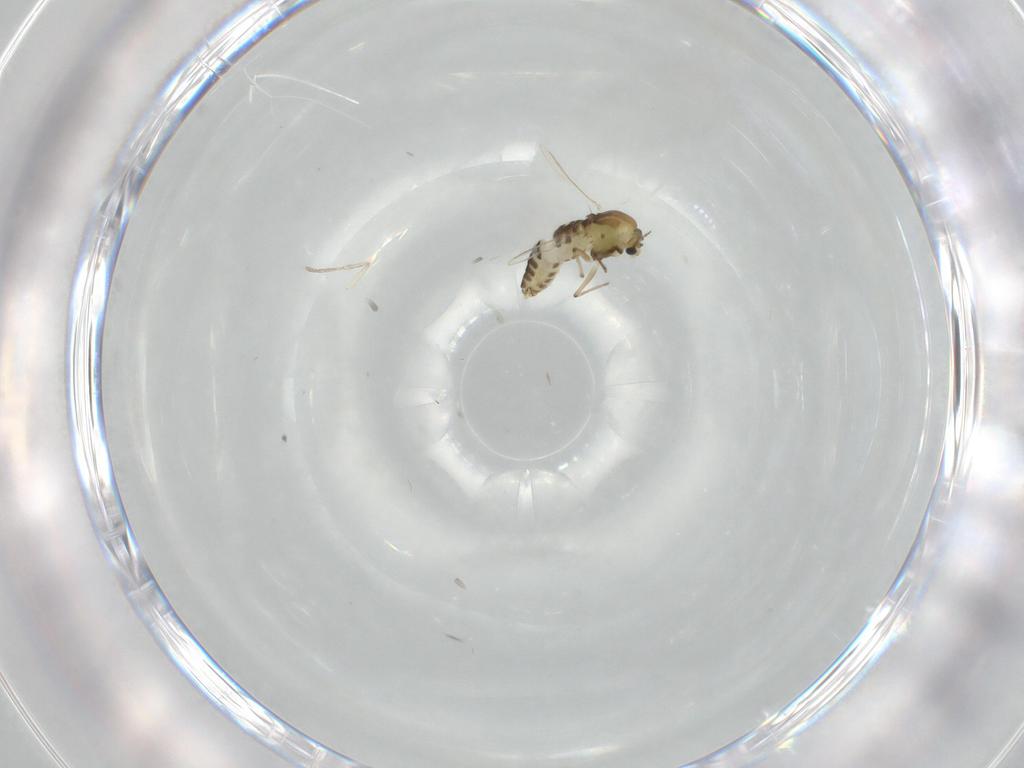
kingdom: Animalia
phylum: Arthropoda
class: Insecta
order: Diptera
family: Chironomidae
